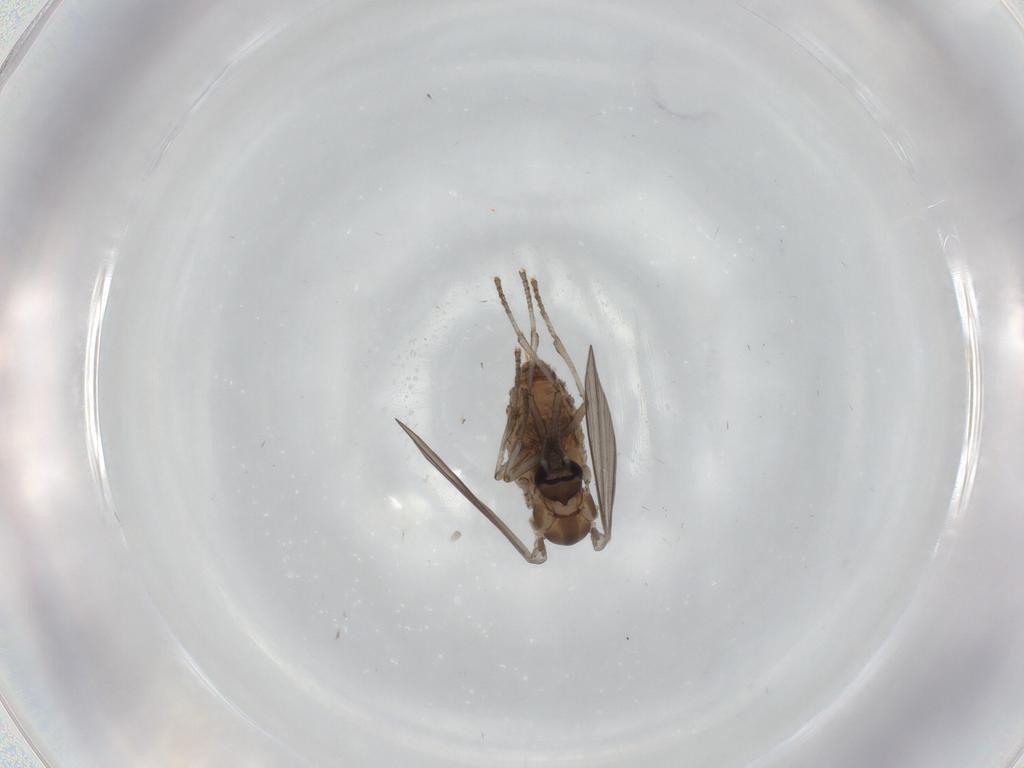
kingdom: Animalia
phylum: Arthropoda
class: Insecta
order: Diptera
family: Psychodidae
